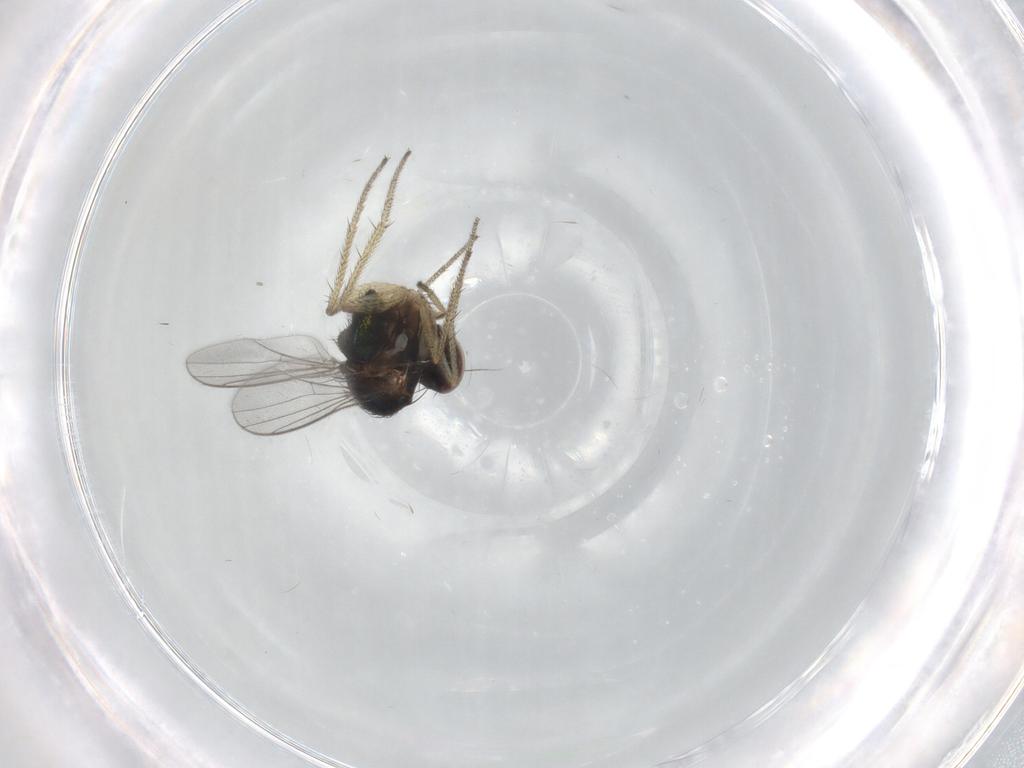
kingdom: Animalia
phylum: Arthropoda
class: Insecta
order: Diptera
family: Dolichopodidae
